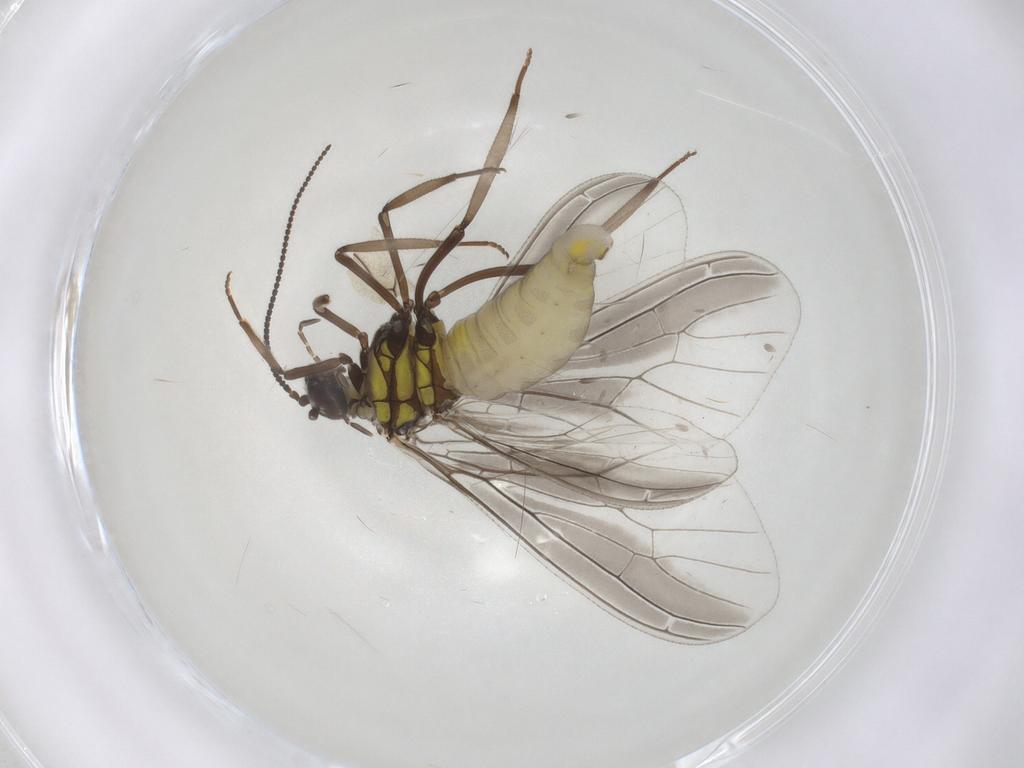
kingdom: Animalia
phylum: Arthropoda
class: Insecta
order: Neuroptera
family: Coniopterygidae
